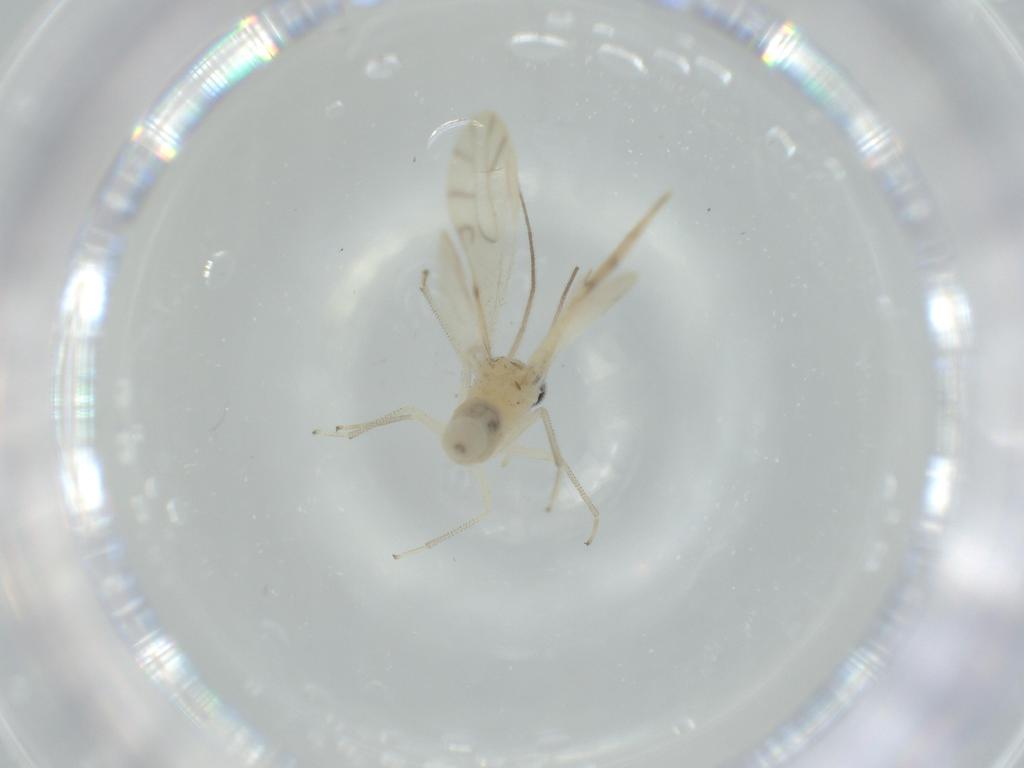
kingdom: Animalia
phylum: Arthropoda
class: Insecta
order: Psocodea
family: Caeciliusidae
